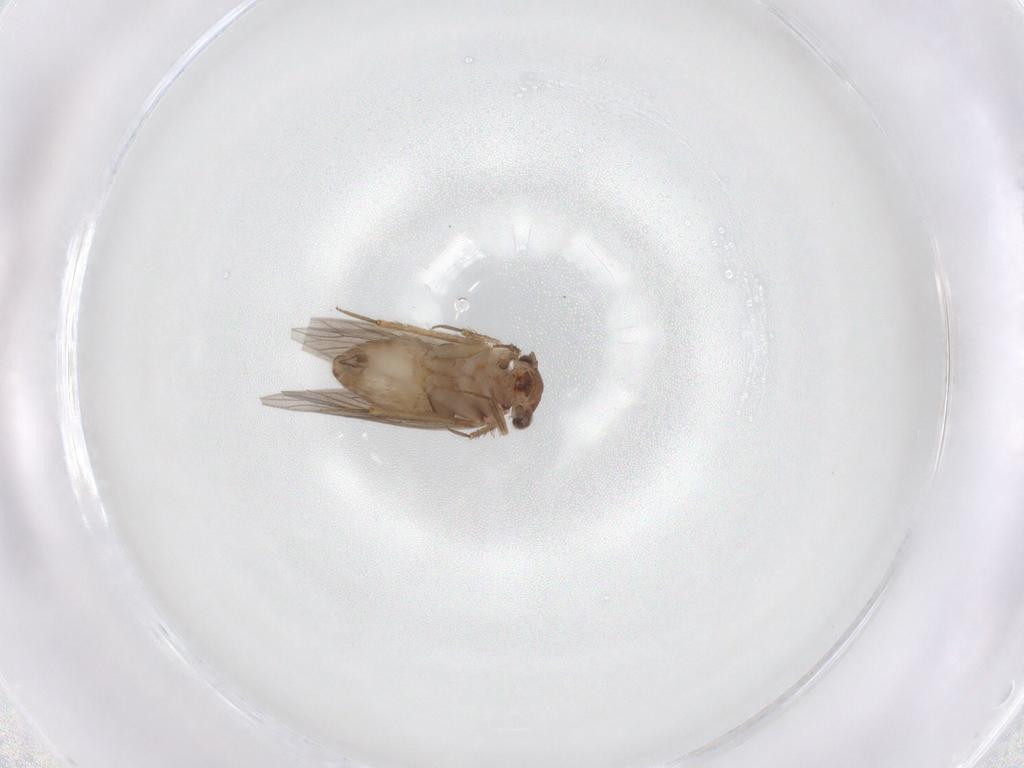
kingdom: Animalia
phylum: Arthropoda
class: Insecta
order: Psocodea
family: Lepidopsocidae
